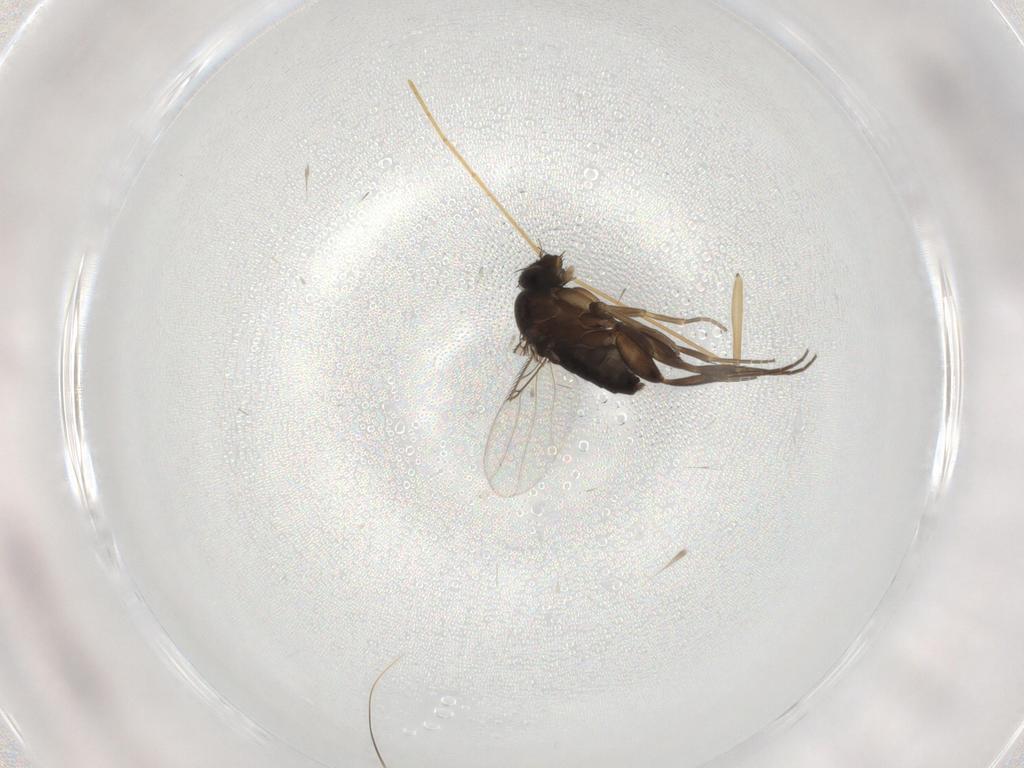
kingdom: Animalia
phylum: Arthropoda
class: Insecta
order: Diptera
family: Phoridae
